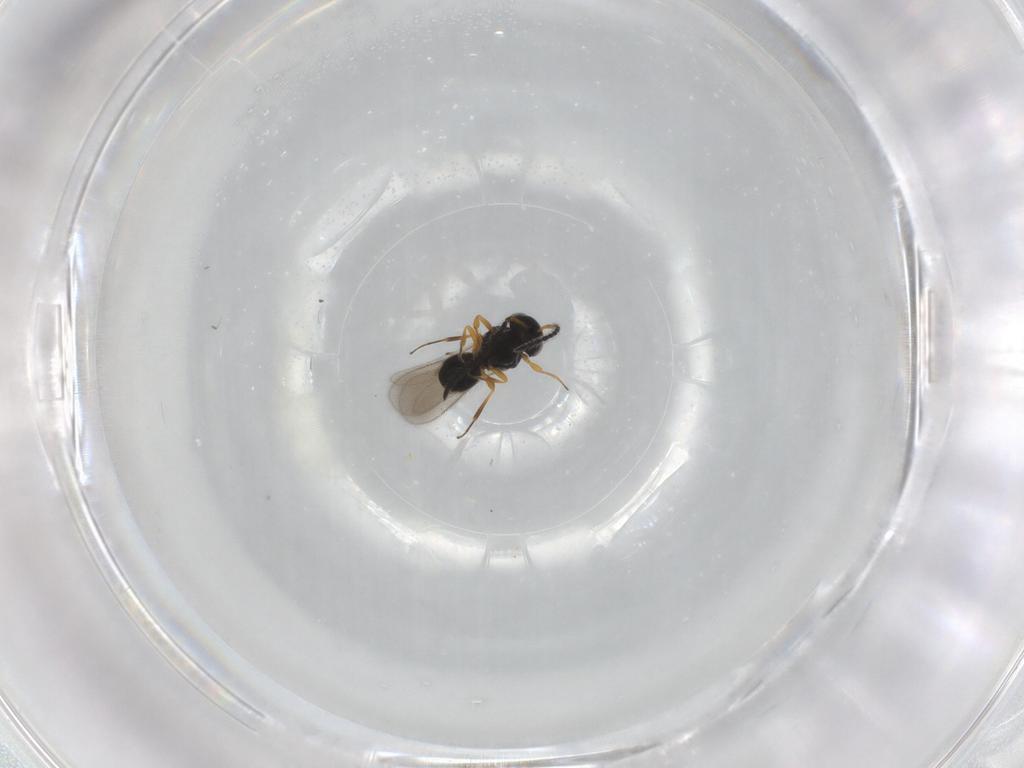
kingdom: Animalia
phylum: Arthropoda
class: Insecta
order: Hymenoptera
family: Scelionidae
